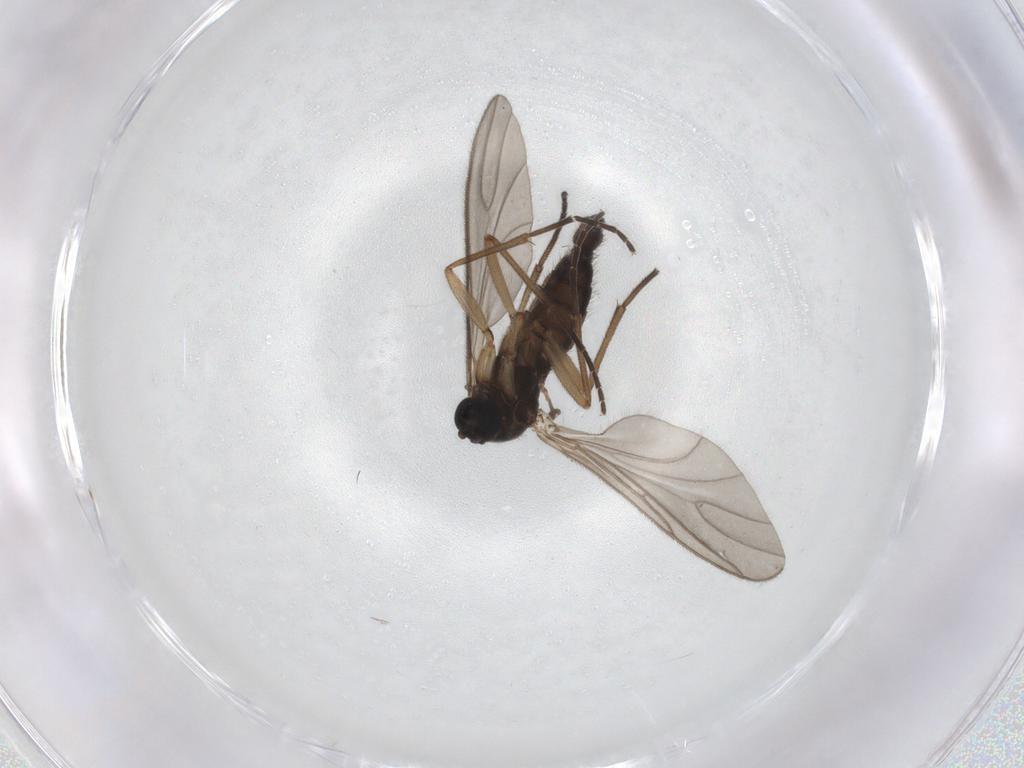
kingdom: Animalia
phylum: Arthropoda
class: Insecta
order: Diptera
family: Sciaridae
